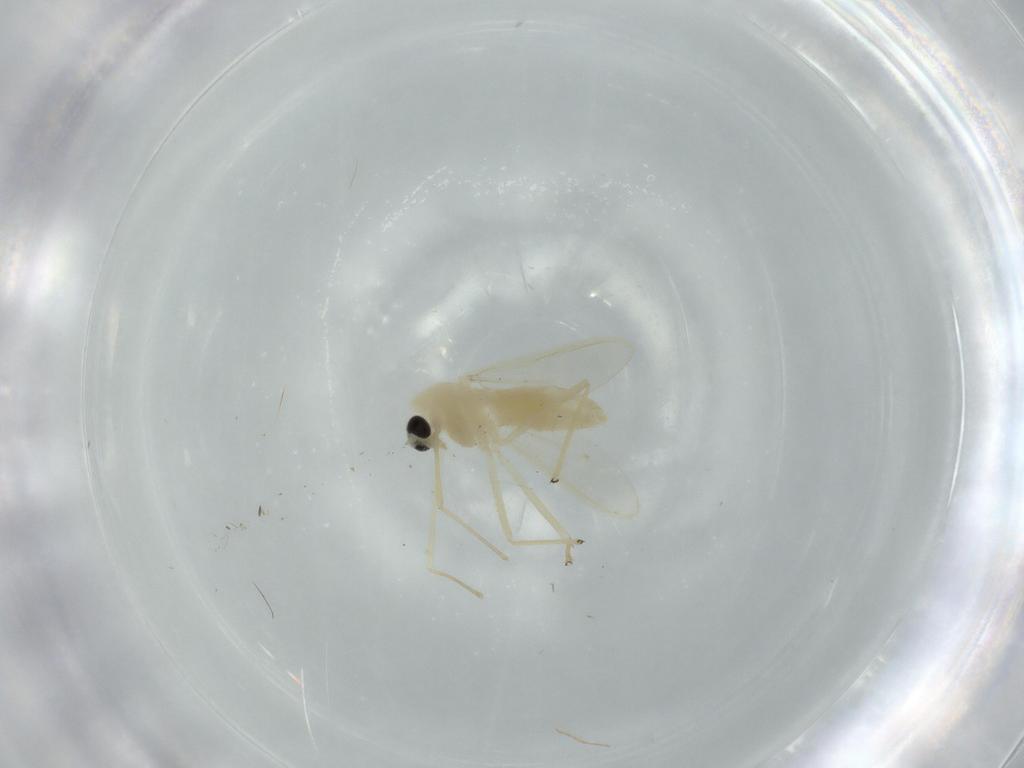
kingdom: Animalia
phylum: Arthropoda
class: Insecta
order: Diptera
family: Chironomidae
